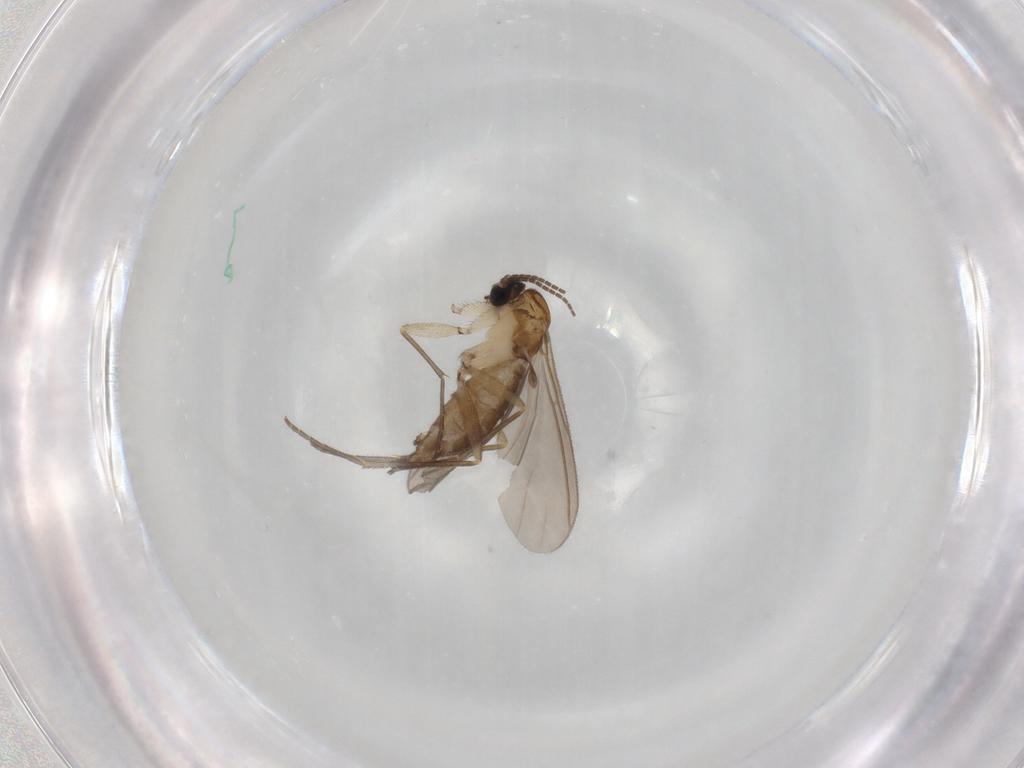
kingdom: Animalia
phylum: Arthropoda
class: Insecta
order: Diptera
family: Sciaridae
